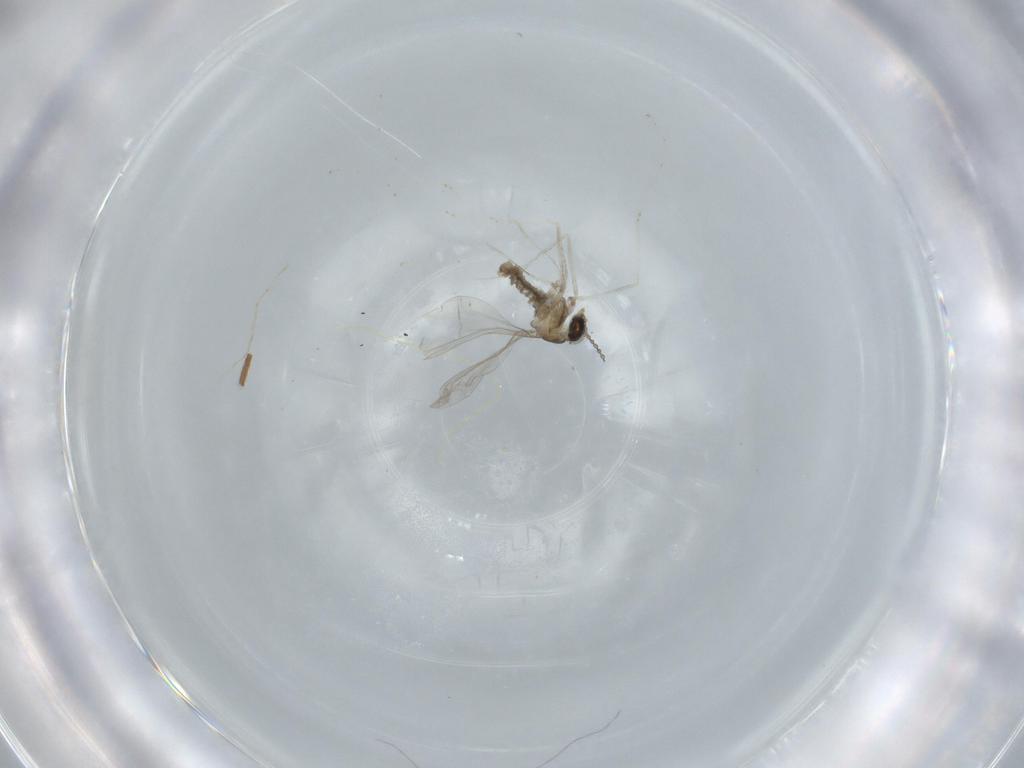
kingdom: Animalia
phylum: Arthropoda
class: Insecta
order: Diptera
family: Cecidomyiidae
